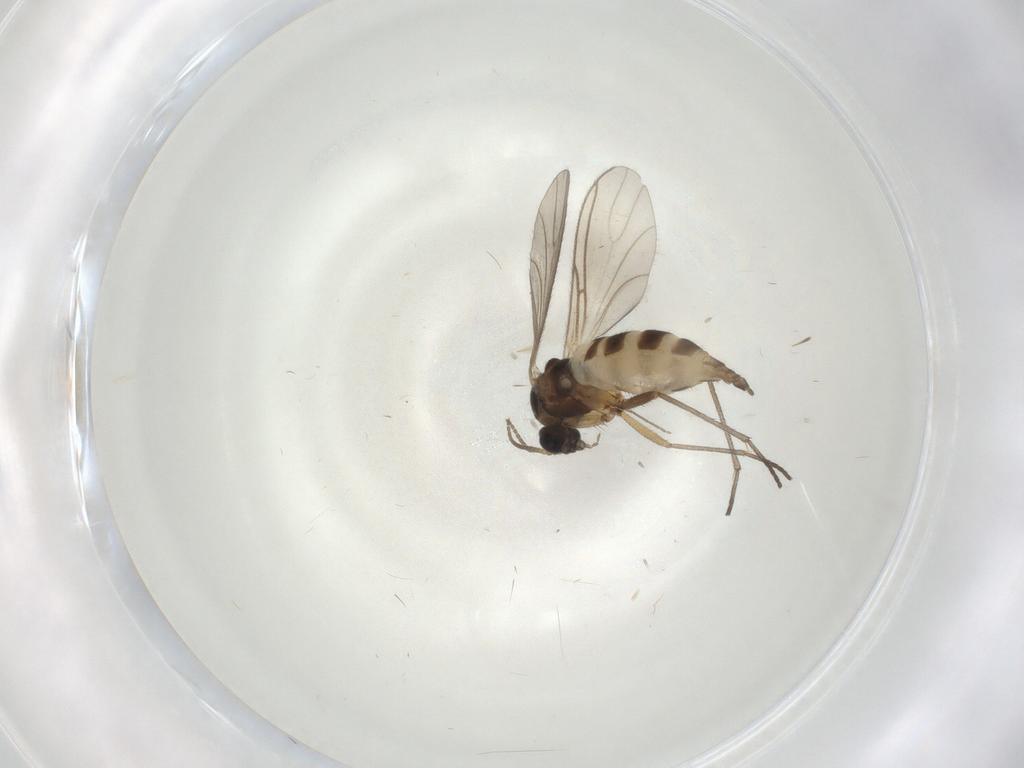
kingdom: Animalia
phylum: Arthropoda
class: Insecta
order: Diptera
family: Sciaridae
